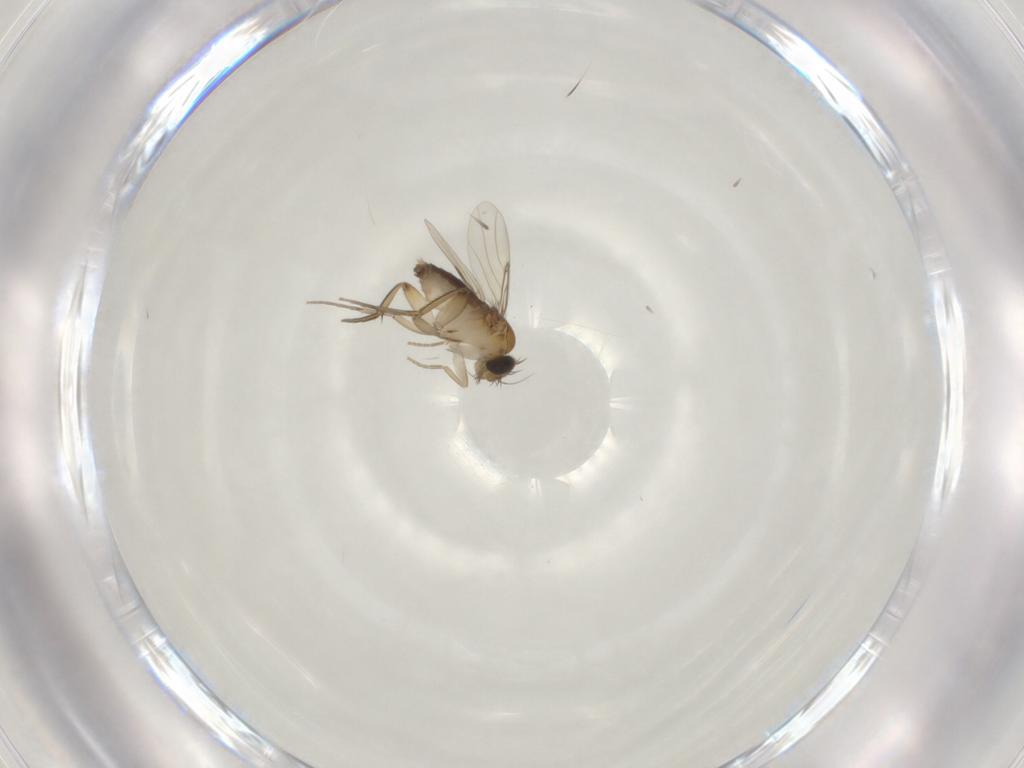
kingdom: Animalia
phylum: Arthropoda
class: Insecta
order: Diptera
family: Phoridae
